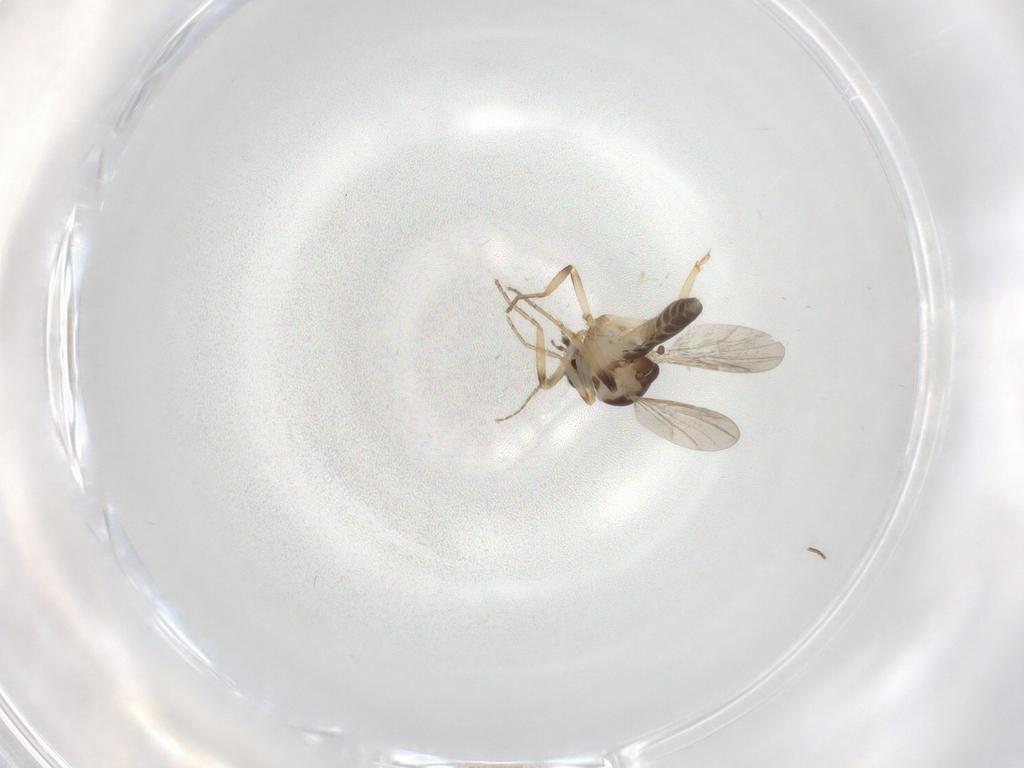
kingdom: Animalia
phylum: Arthropoda
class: Insecta
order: Diptera
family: Ceratopogonidae
